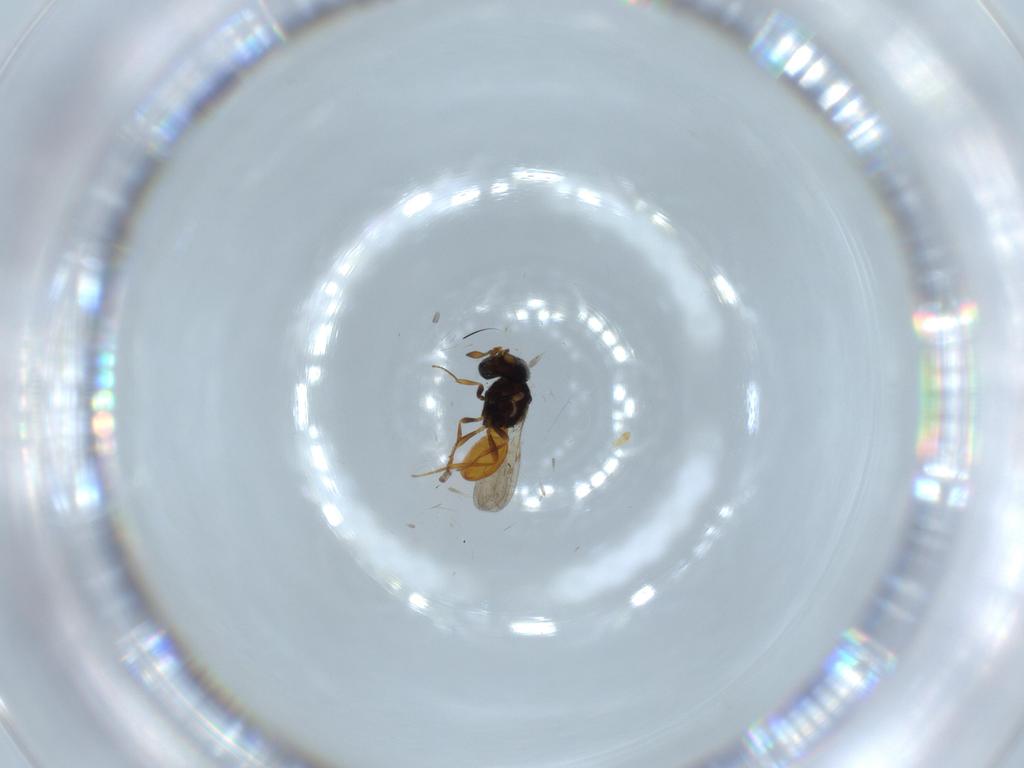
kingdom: Animalia
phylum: Arthropoda
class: Insecta
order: Hymenoptera
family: Scelionidae
